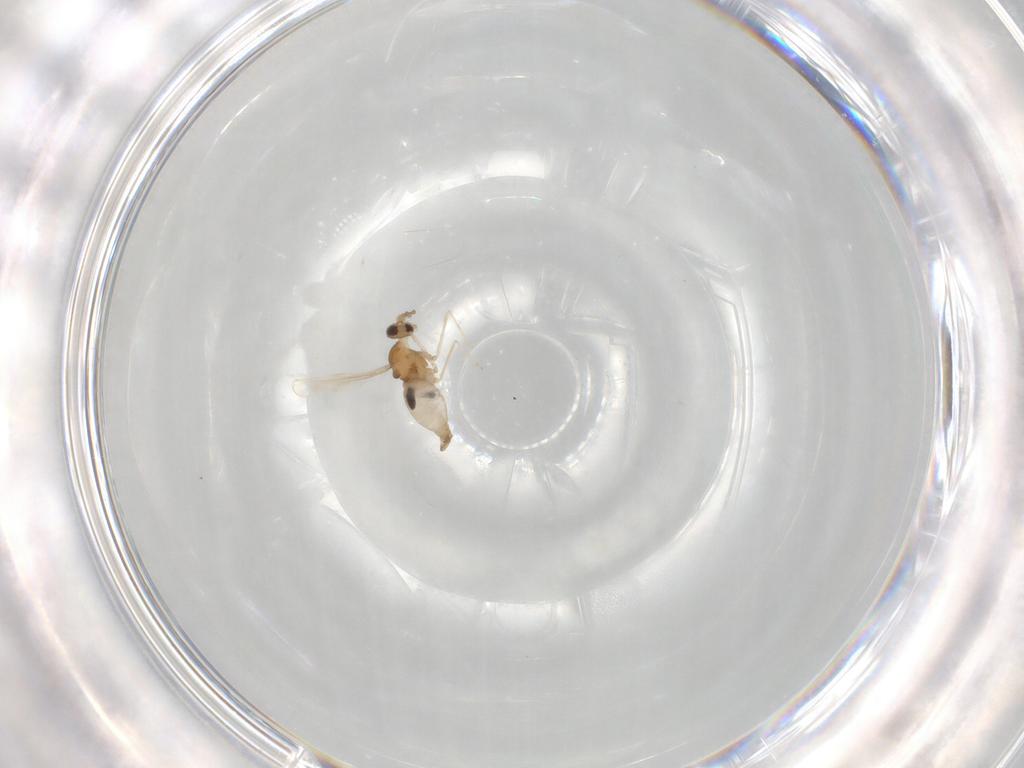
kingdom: Animalia
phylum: Arthropoda
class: Insecta
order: Diptera
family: Cecidomyiidae
